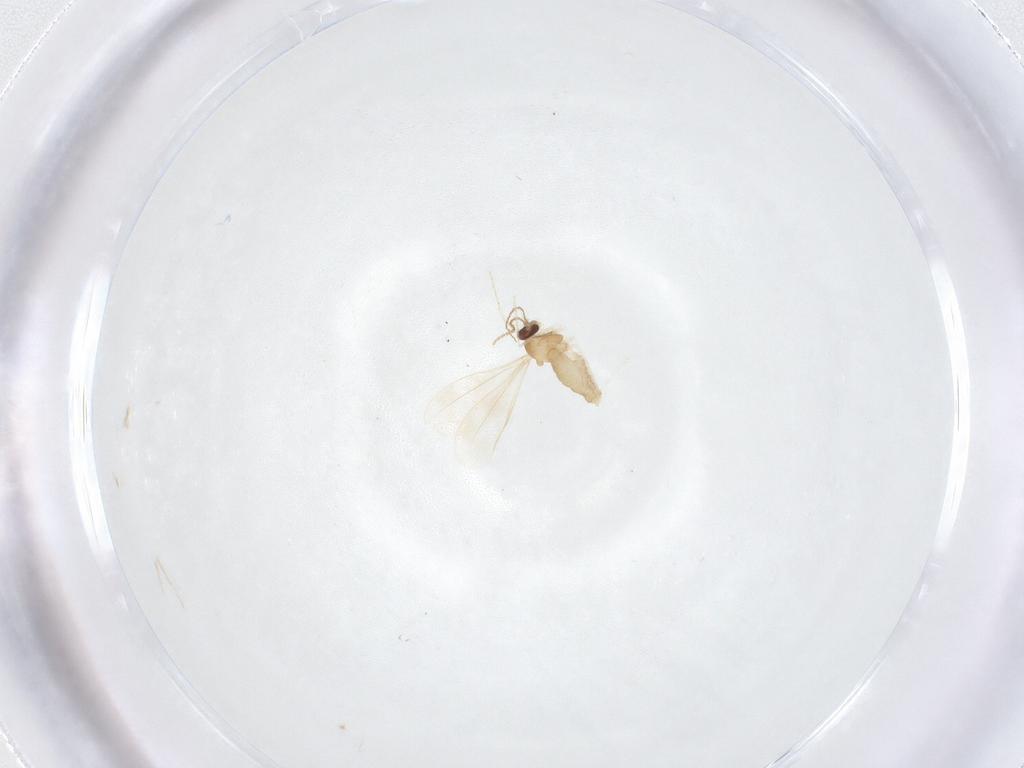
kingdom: Animalia
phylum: Arthropoda
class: Insecta
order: Diptera
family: Cecidomyiidae
